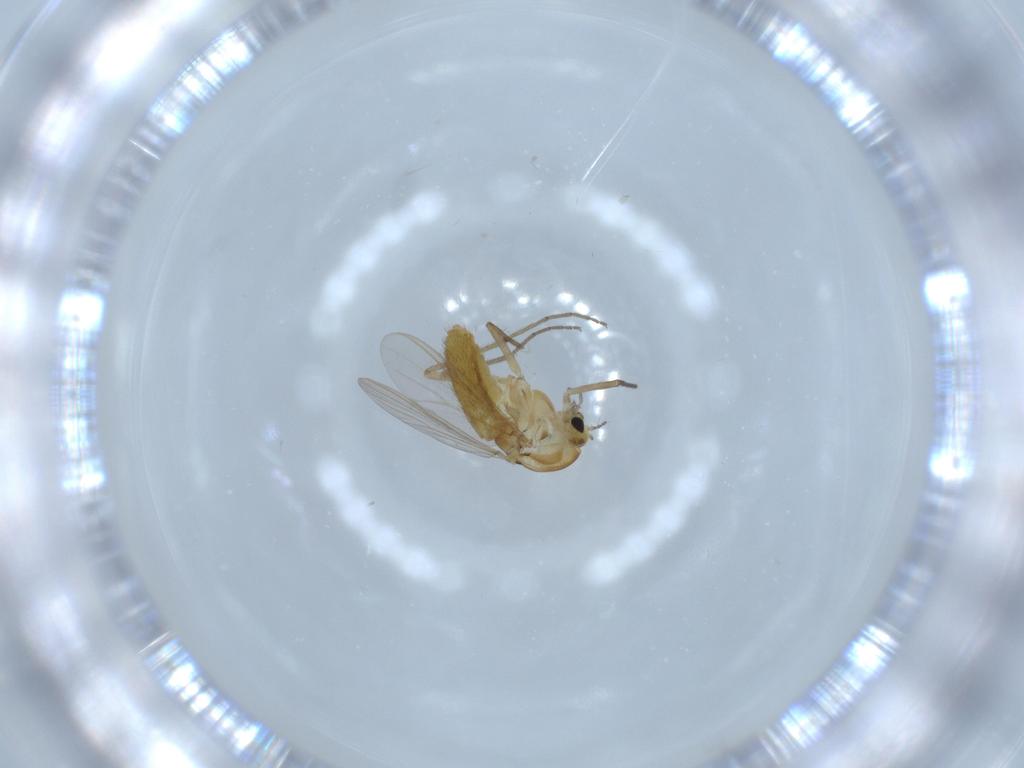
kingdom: Animalia
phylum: Arthropoda
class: Insecta
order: Diptera
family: Chironomidae
